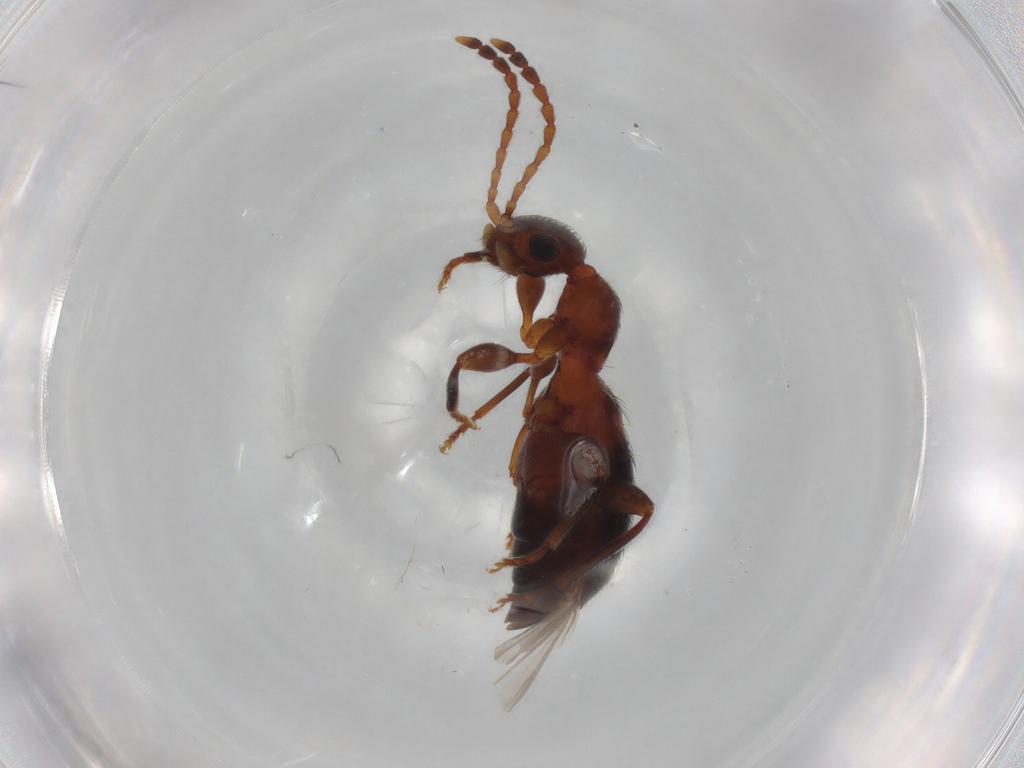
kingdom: Animalia
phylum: Arthropoda
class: Insecta
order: Coleoptera
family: Anthicidae
